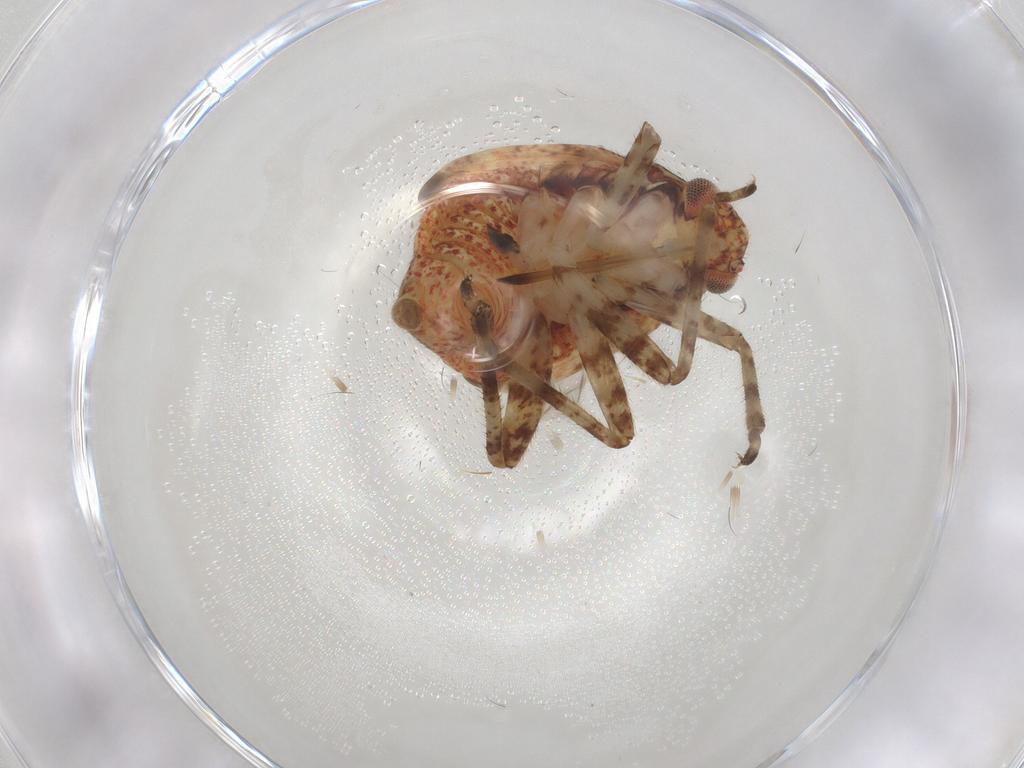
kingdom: Animalia
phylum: Arthropoda
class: Insecta
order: Hemiptera
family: Miridae
